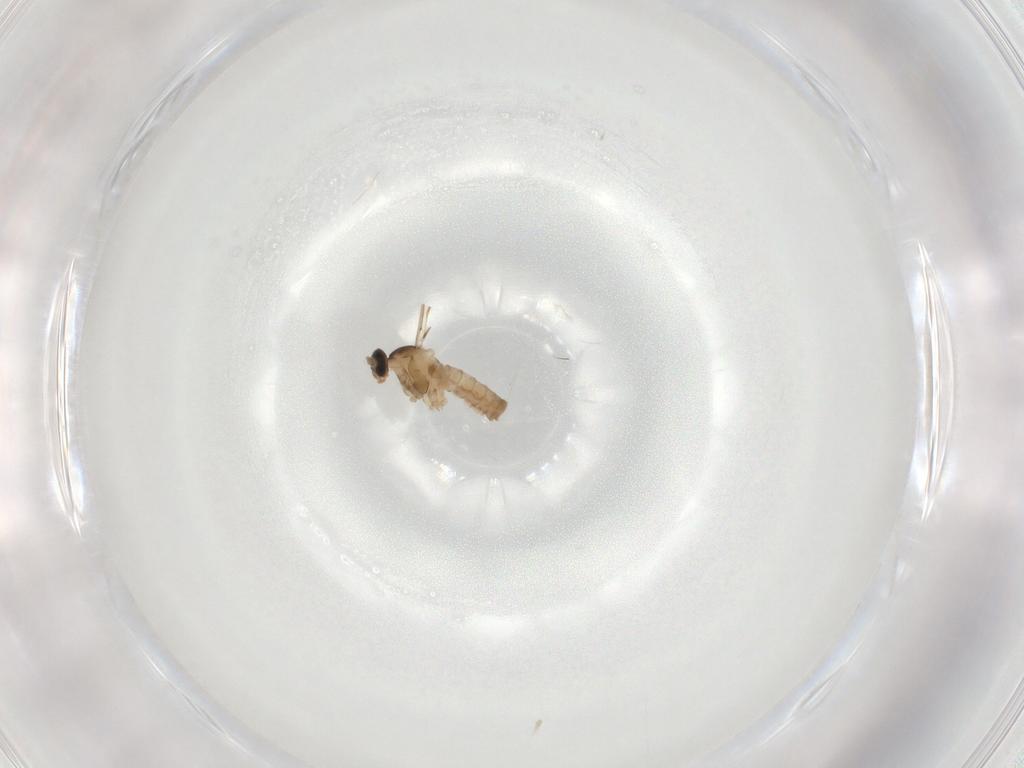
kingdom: Animalia
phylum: Arthropoda
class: Insecta
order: Diptera
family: Cecidomyiidae
